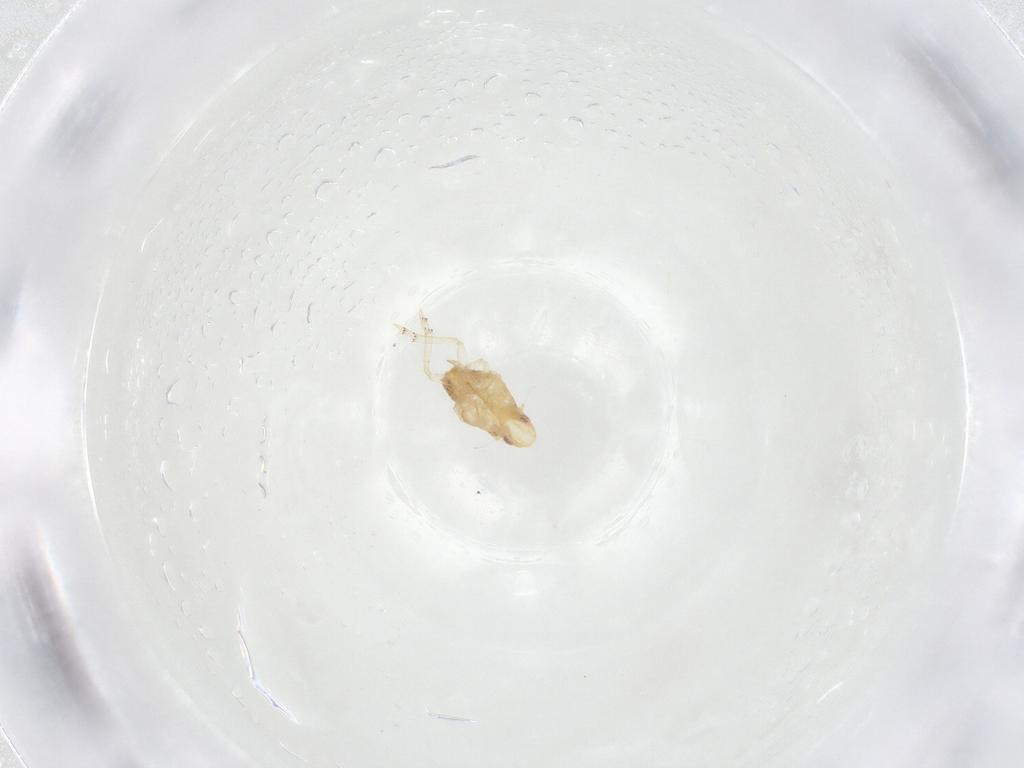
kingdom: Animalia
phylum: Arthropoda
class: Insecta
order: Hemiptera
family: Flatidae
